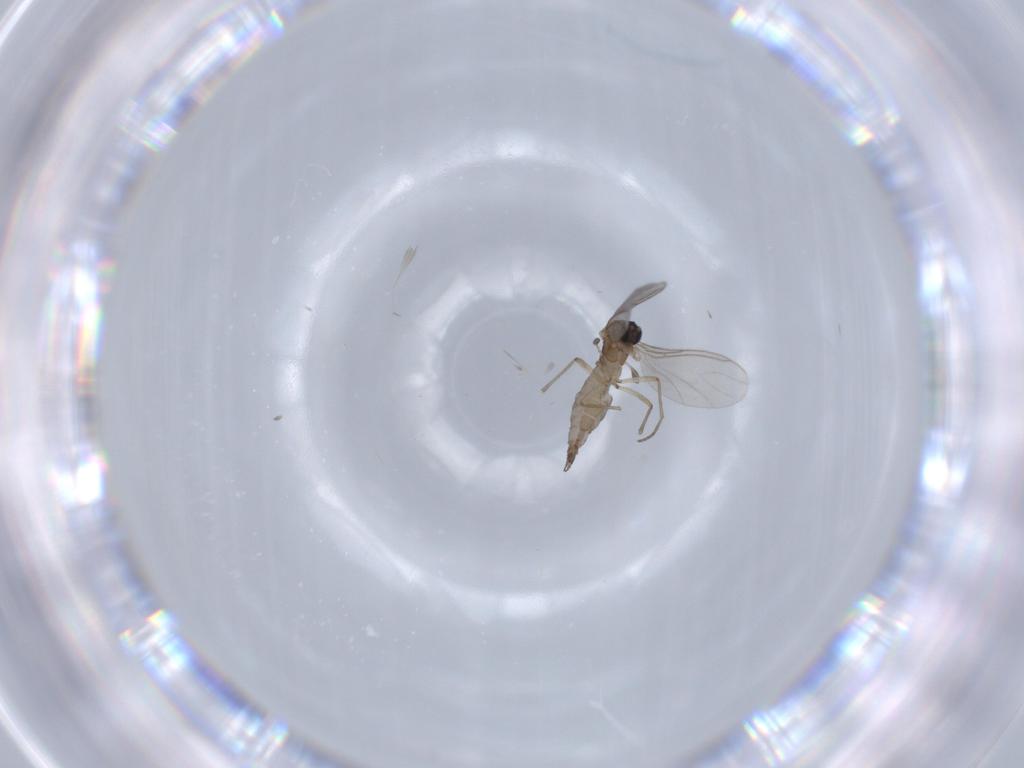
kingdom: Animalia
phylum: Arthropoda
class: Insecta
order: Diptera
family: Sciaridae
